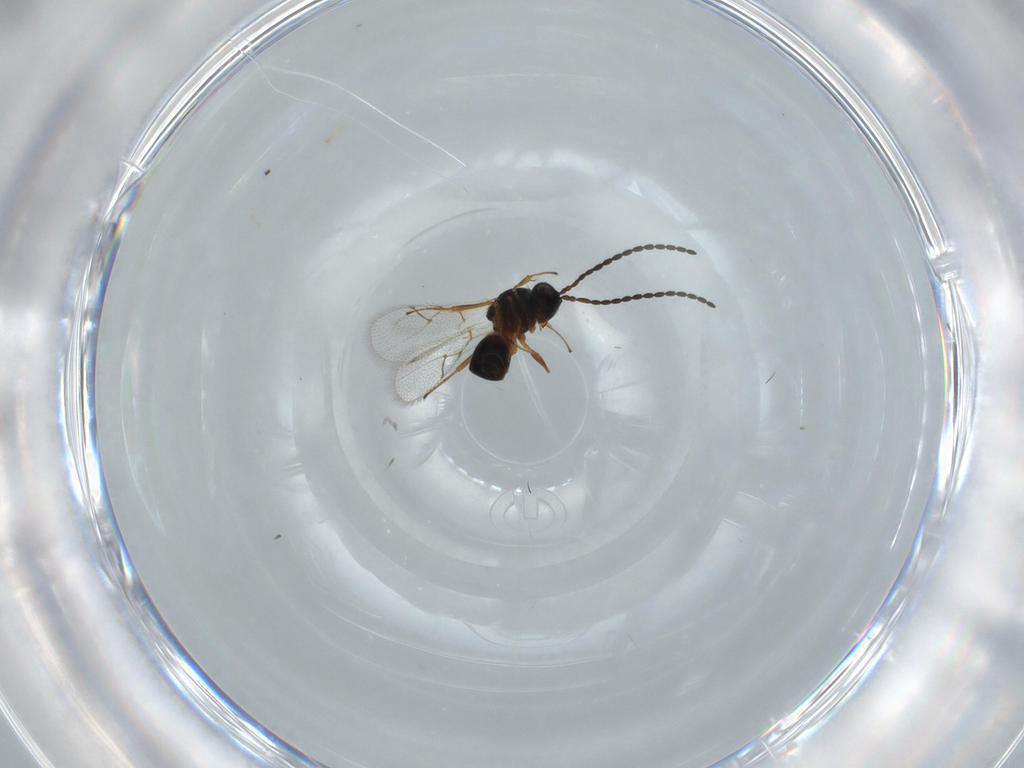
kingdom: Animalia
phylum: Arthropoda
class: Insecta
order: Hymenoptera
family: Figitidae
